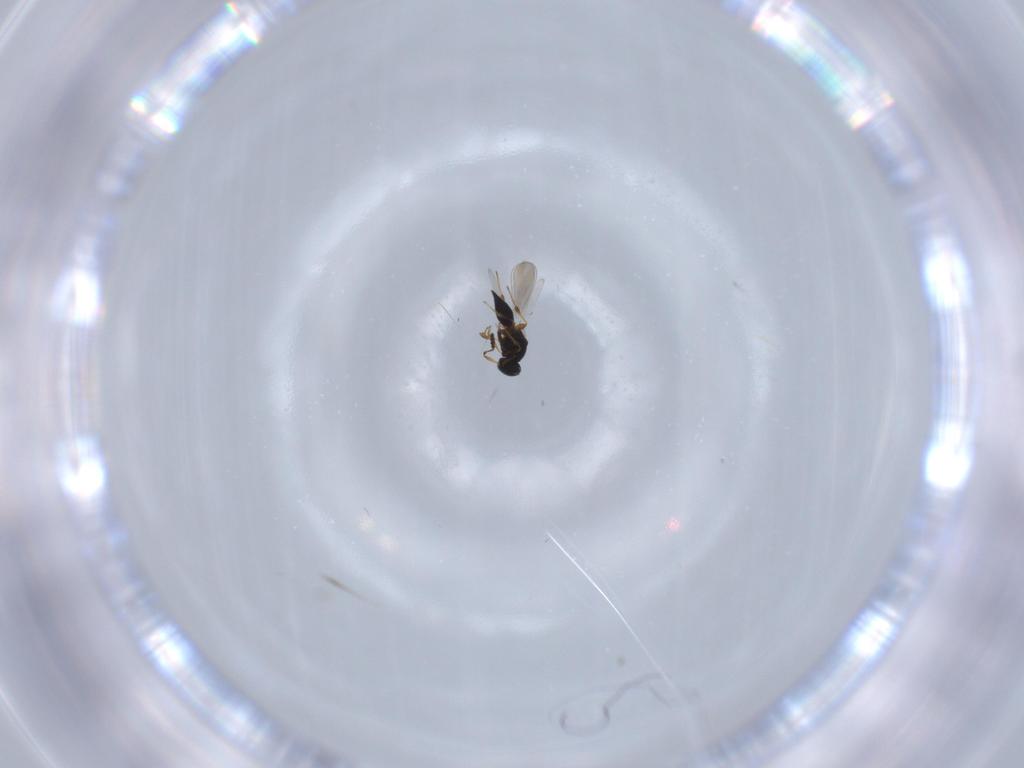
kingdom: Animalia
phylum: Arthropoda
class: Insecta
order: Hymenoptera
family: Platygastridae
